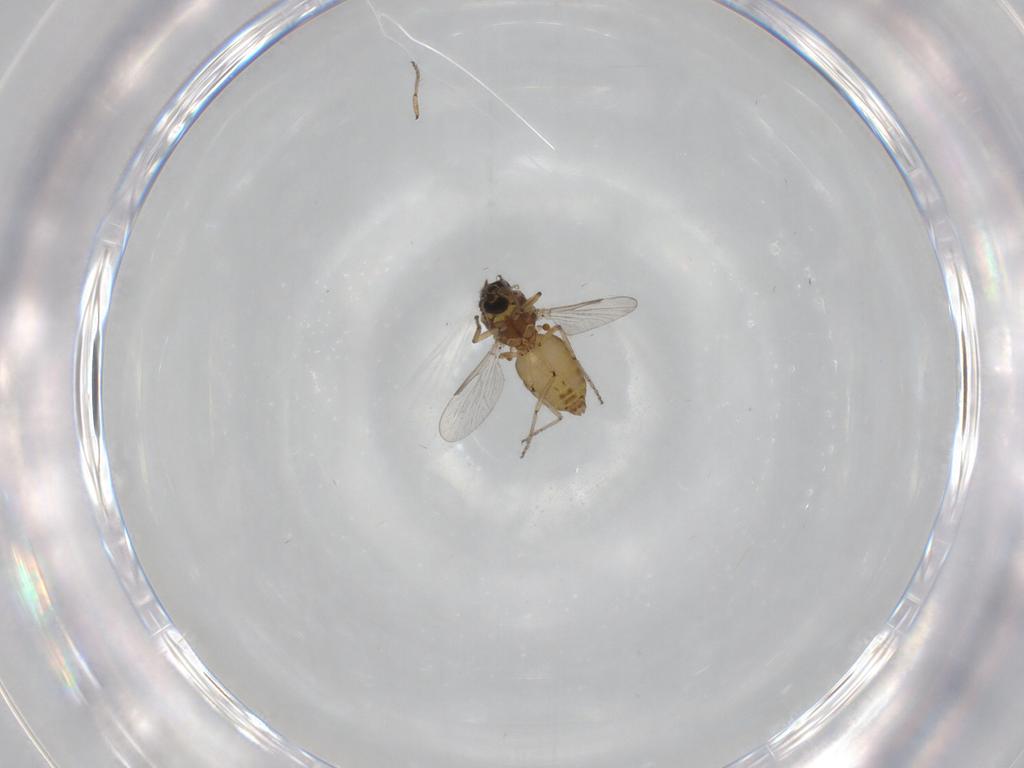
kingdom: Animalia
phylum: Arthropoda
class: Insecta
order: Diptera
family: Ceratopogonidae
